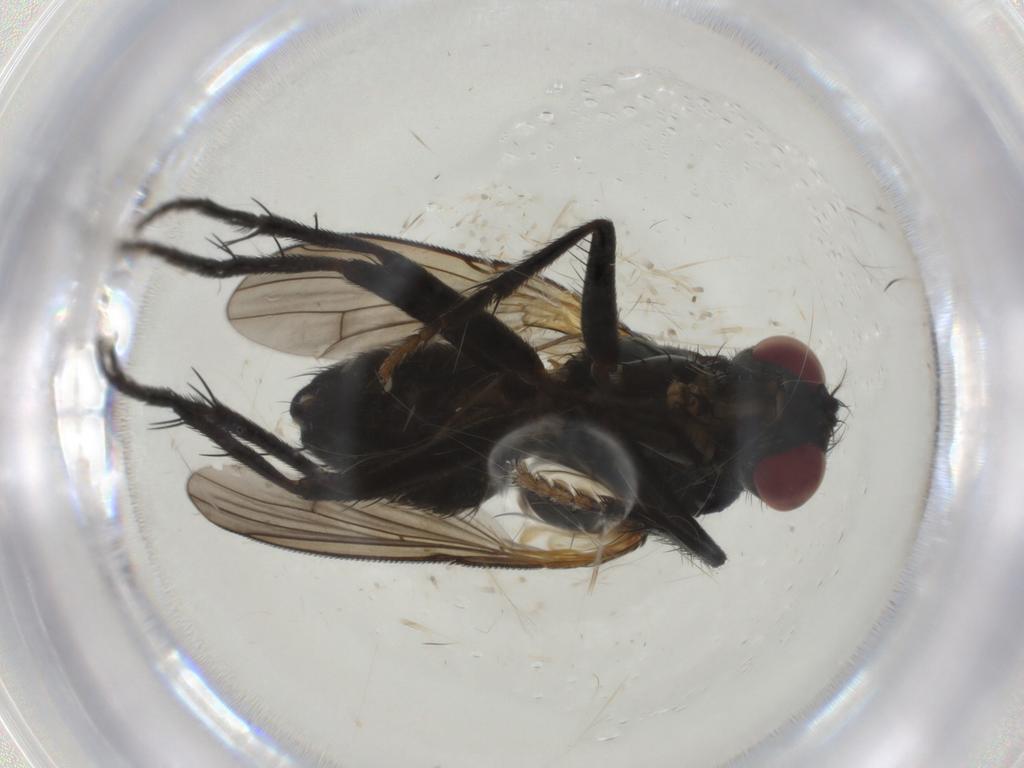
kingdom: Animalia
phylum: Arthropoda
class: Insecta
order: Diptera
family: Muscidae
